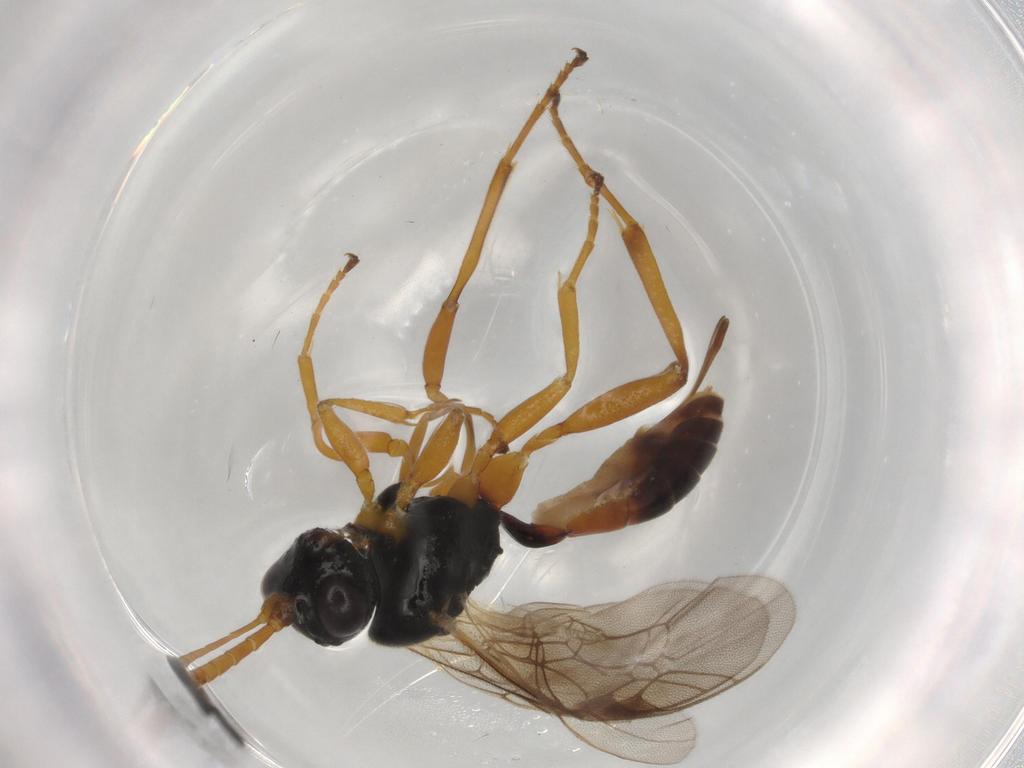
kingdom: Animalia
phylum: Arthropoda
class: Insecta
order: Hymenoptera
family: Ichneumonidae
